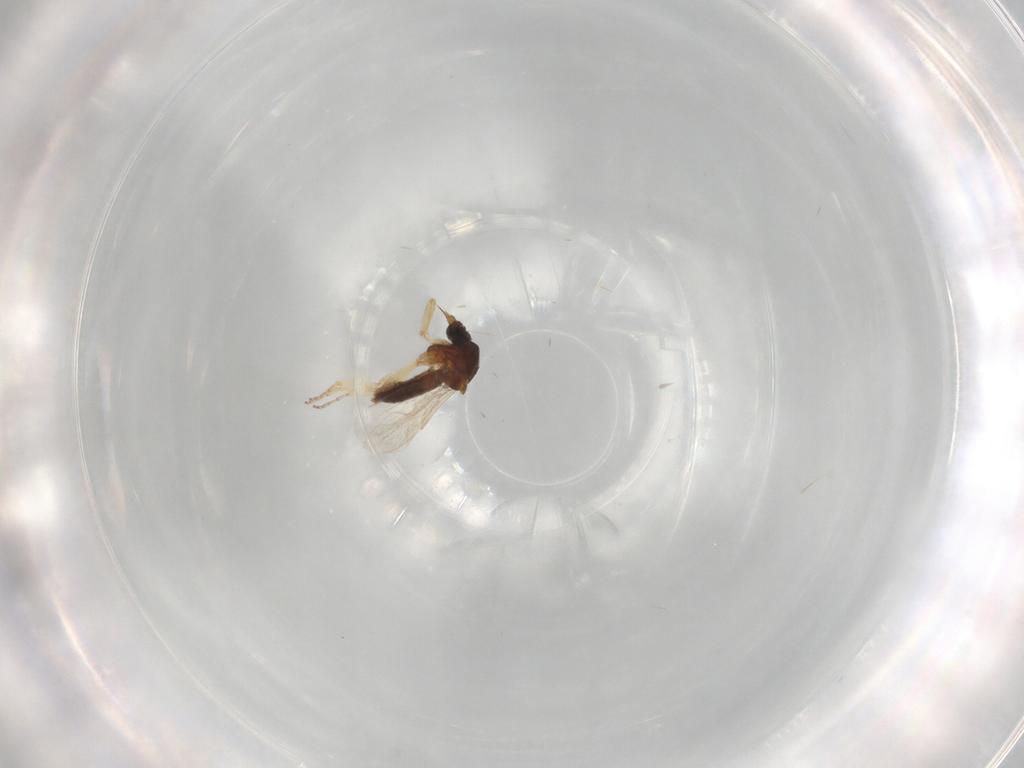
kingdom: Animalia
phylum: Arthropoda
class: Insecta
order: Diptera
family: Sciaridae
